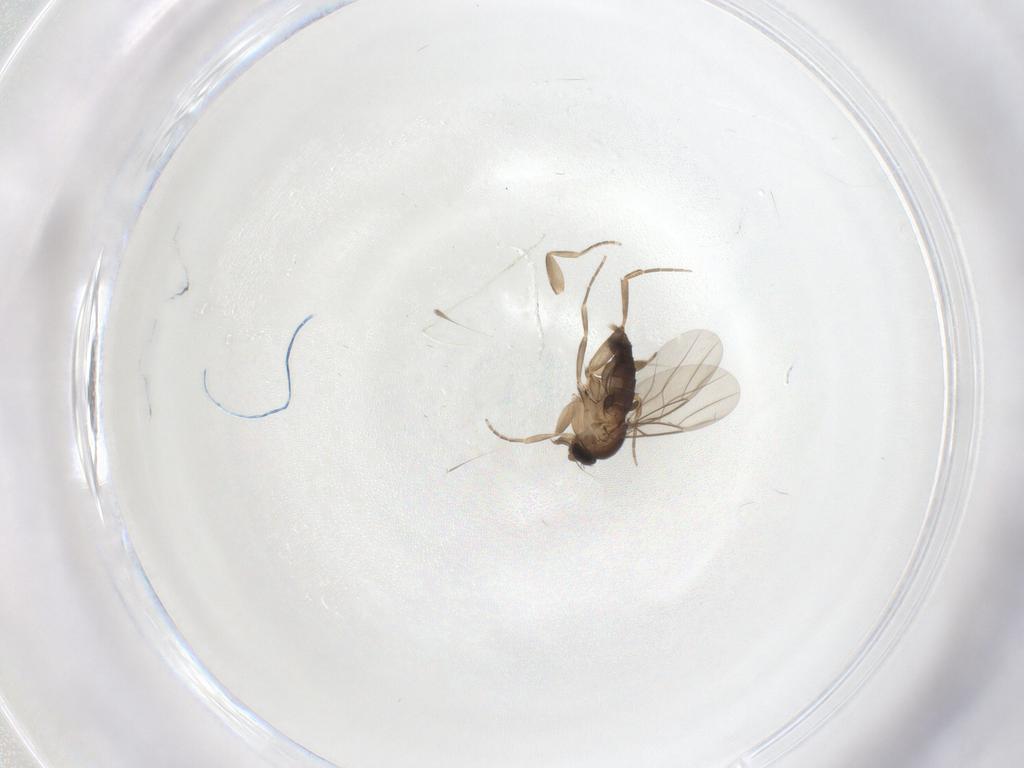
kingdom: Animalia
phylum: Arthropoda
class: Insecta
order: Diptera
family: Phoridae
